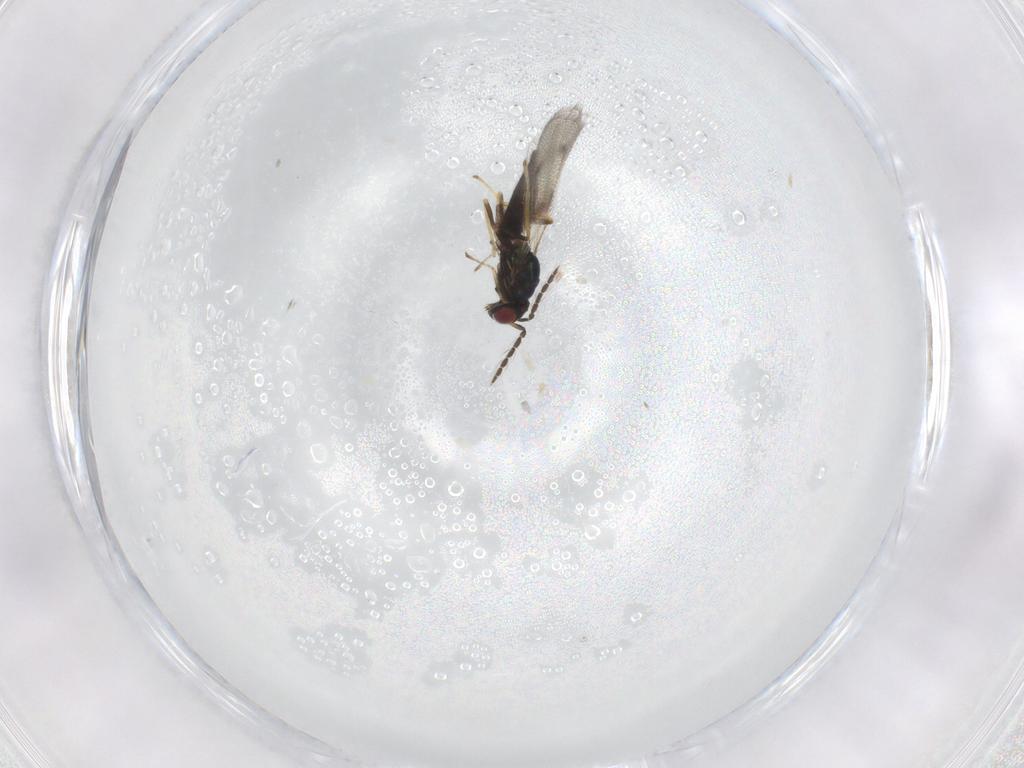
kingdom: Animalia
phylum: Arthropoda
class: Insecta
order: Hymenoptera
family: Eulophidae
